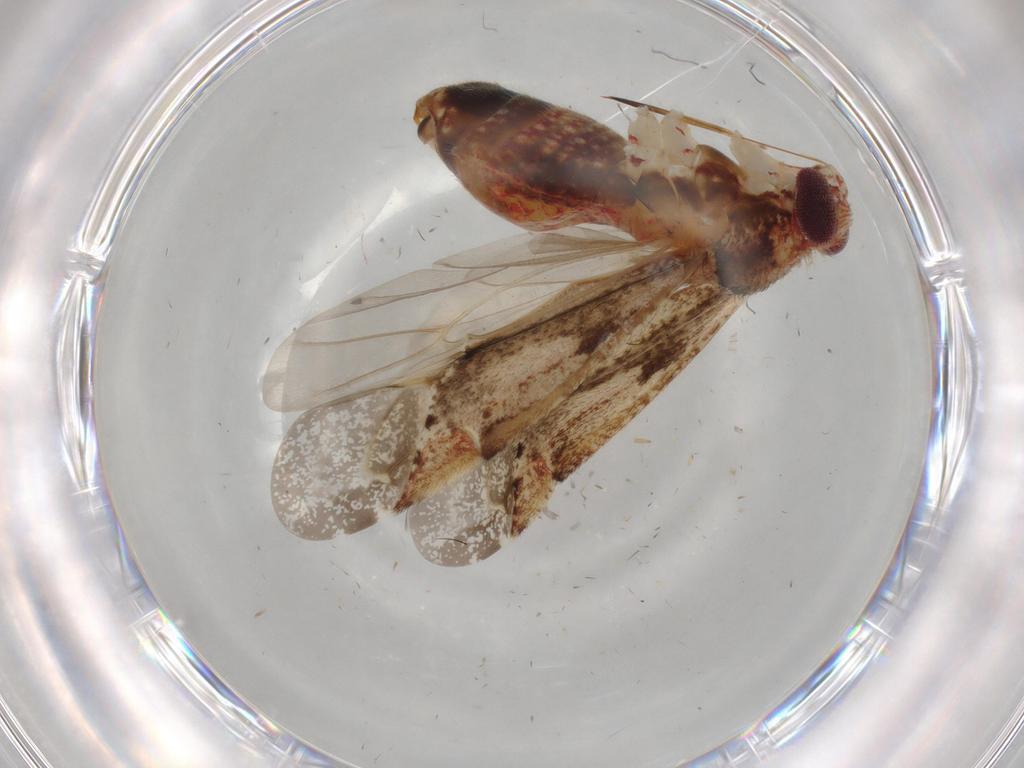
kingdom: Animalia
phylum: Arthropoda
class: Insecta
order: Hemiptera
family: Miridae
